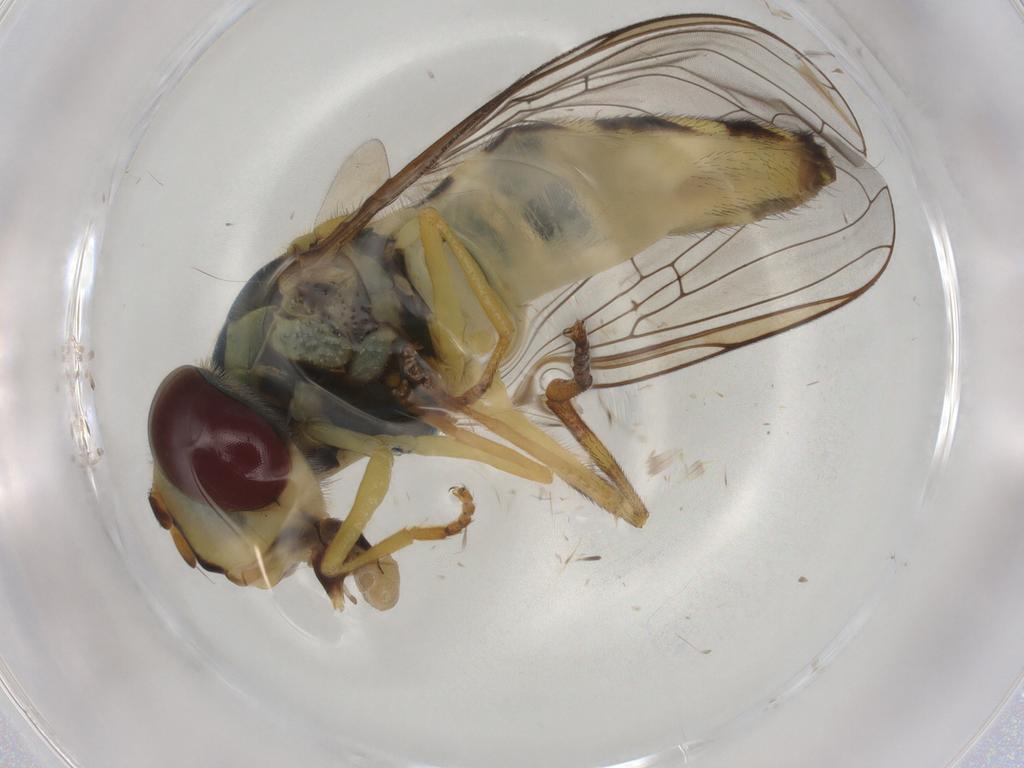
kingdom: Animalia
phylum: Arthropoda
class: Insecta
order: Diptera
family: Syrphidae
